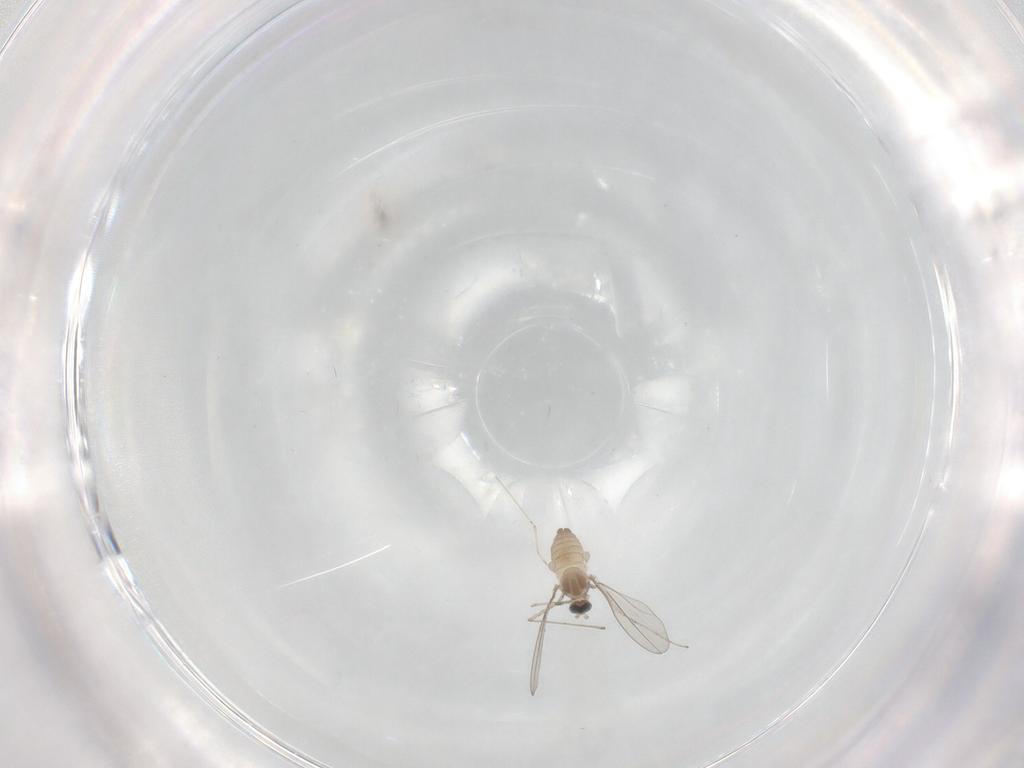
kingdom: Animalia
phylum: Arthropoda
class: Insecta
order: Diptera
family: Cecidomyiidae
